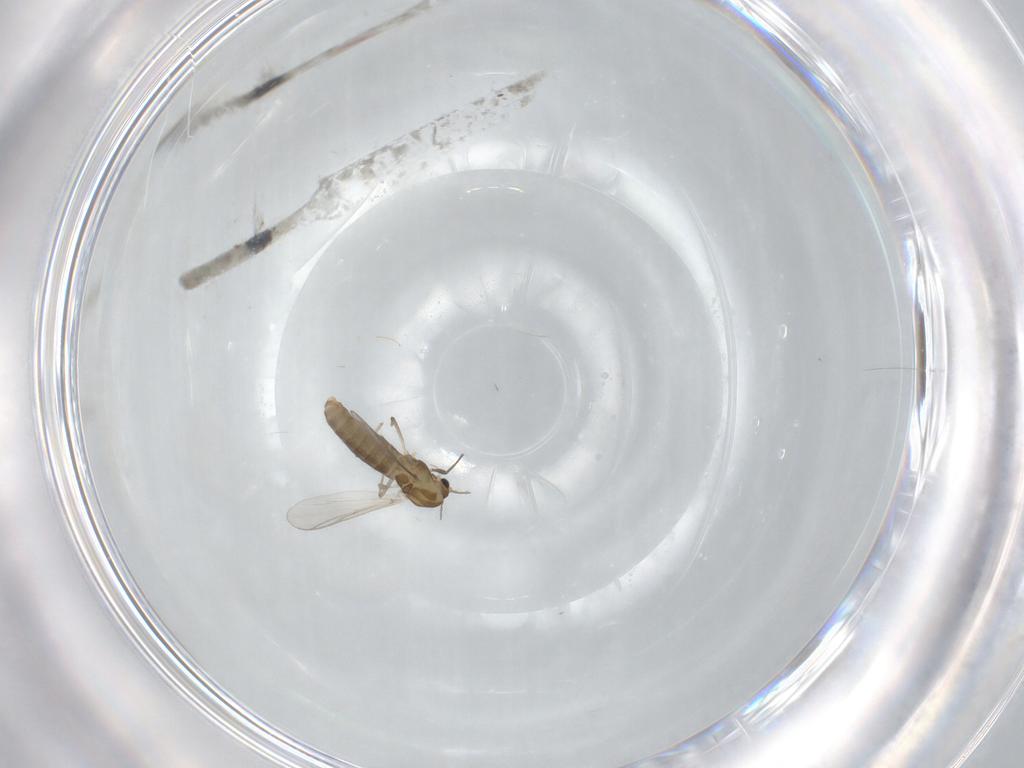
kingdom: Animalia
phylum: Arthropoda
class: Insecta
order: Diptera
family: Chironomidae
